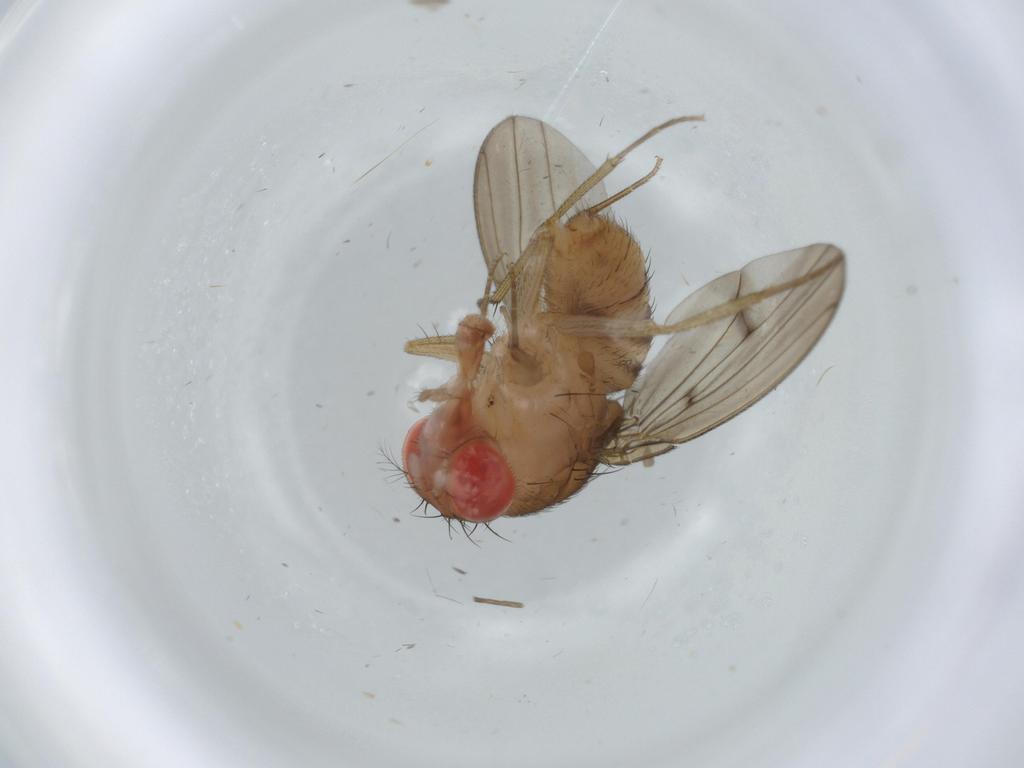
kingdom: Animalia
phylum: Arthropoda
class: Insecta
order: Diptera
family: Drosophilidae
